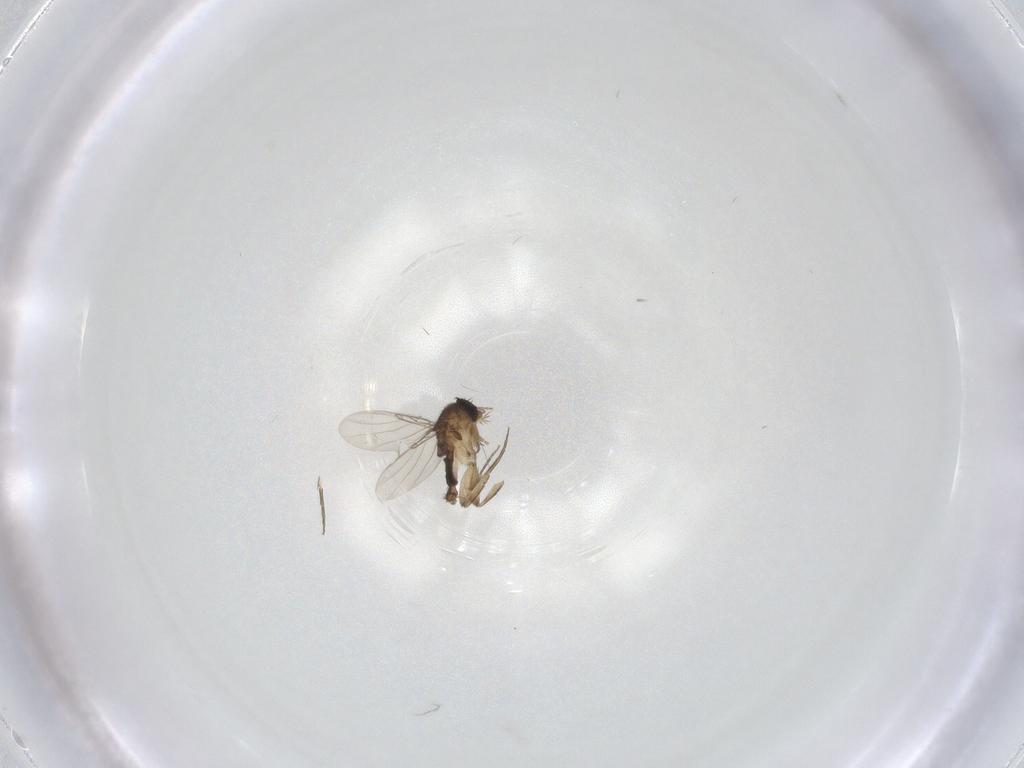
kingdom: Animalia
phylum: Arthropoda
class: Insecta
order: Diptera
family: Phoridae
